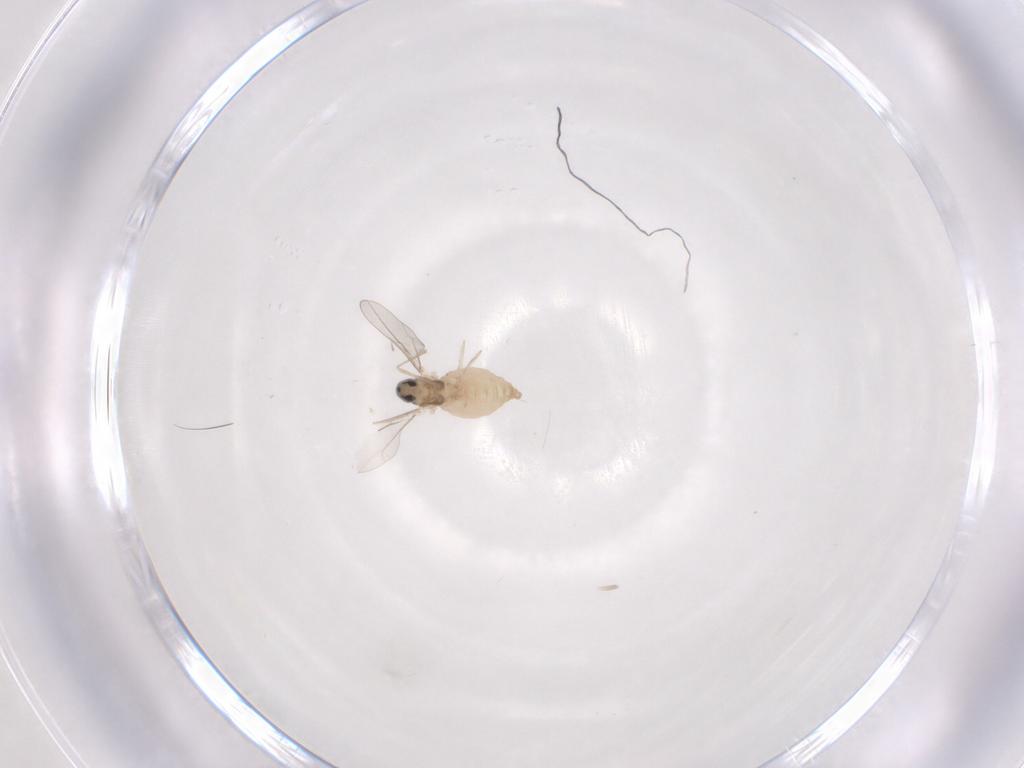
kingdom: Animalia
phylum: Arthropoda
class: Insecta
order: Diptera
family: Cecidomyiidae
